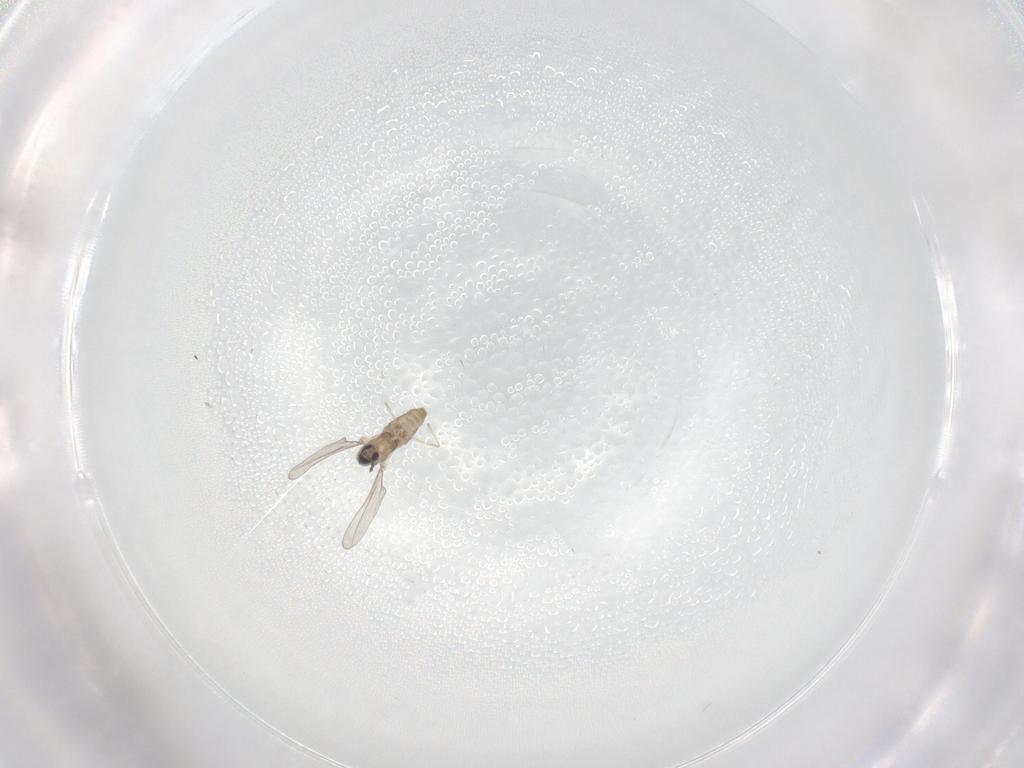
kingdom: Animalia
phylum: Arthropoda
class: Insecta
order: Diptera
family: Cecidomyiidae
